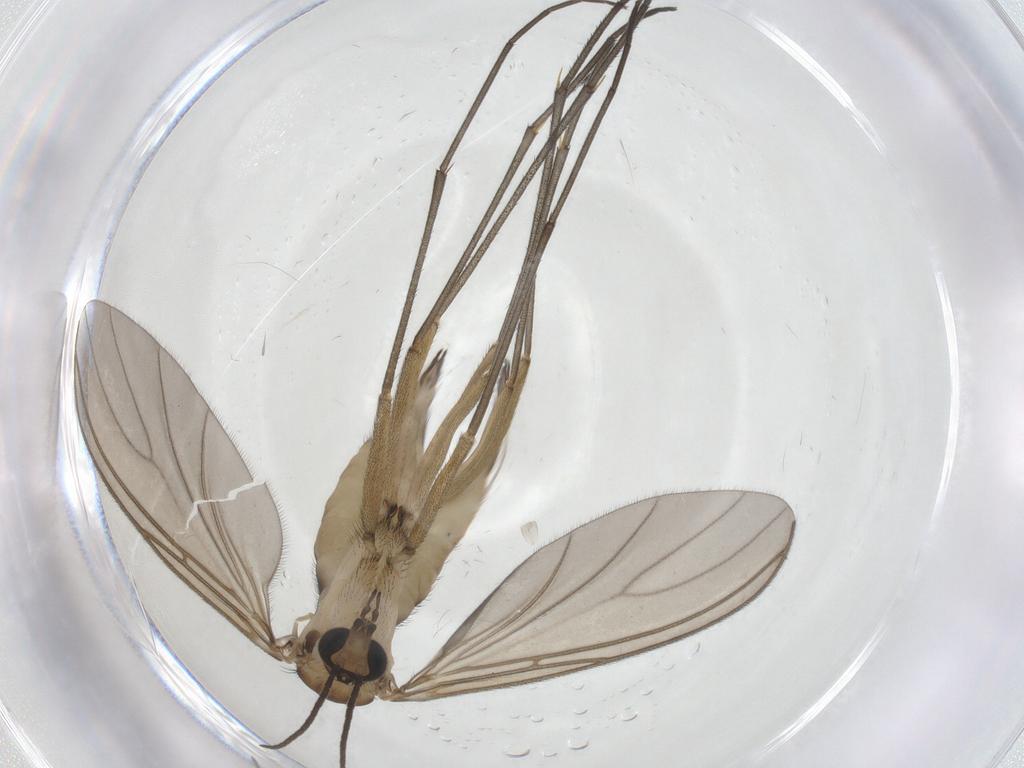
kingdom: Animalia
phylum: Arthropoda
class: Insecta
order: Diptera
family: Sciaridae
